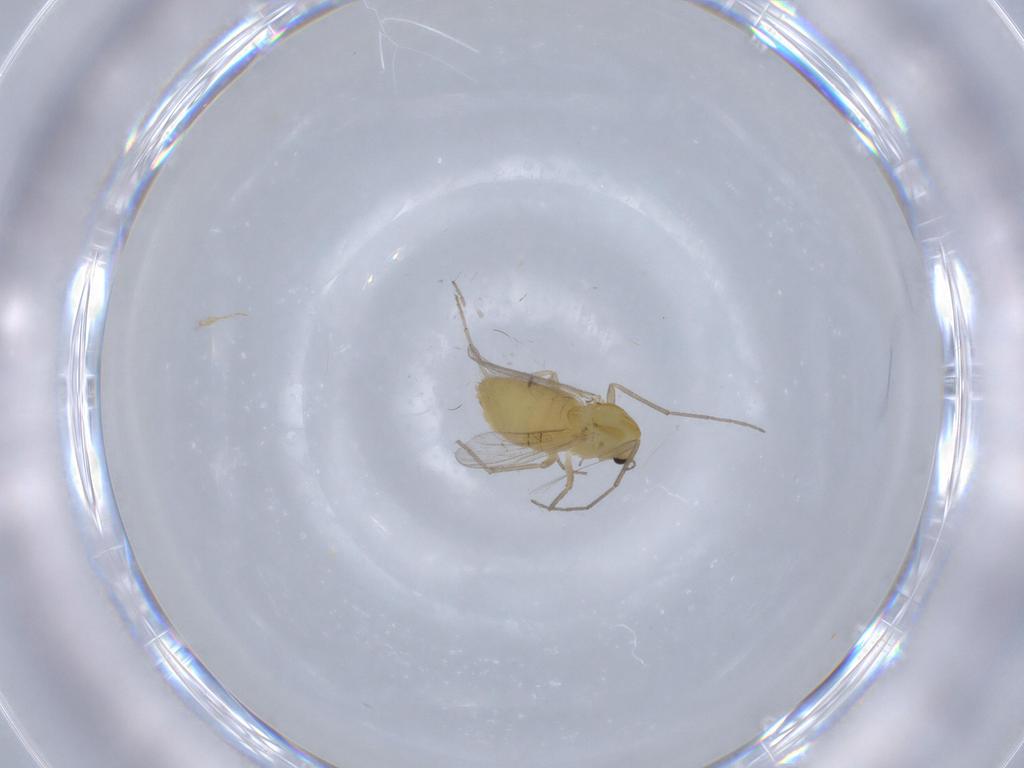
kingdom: Animalia
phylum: Arthropoda
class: Insecta
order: Diptera
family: Chironomidae
